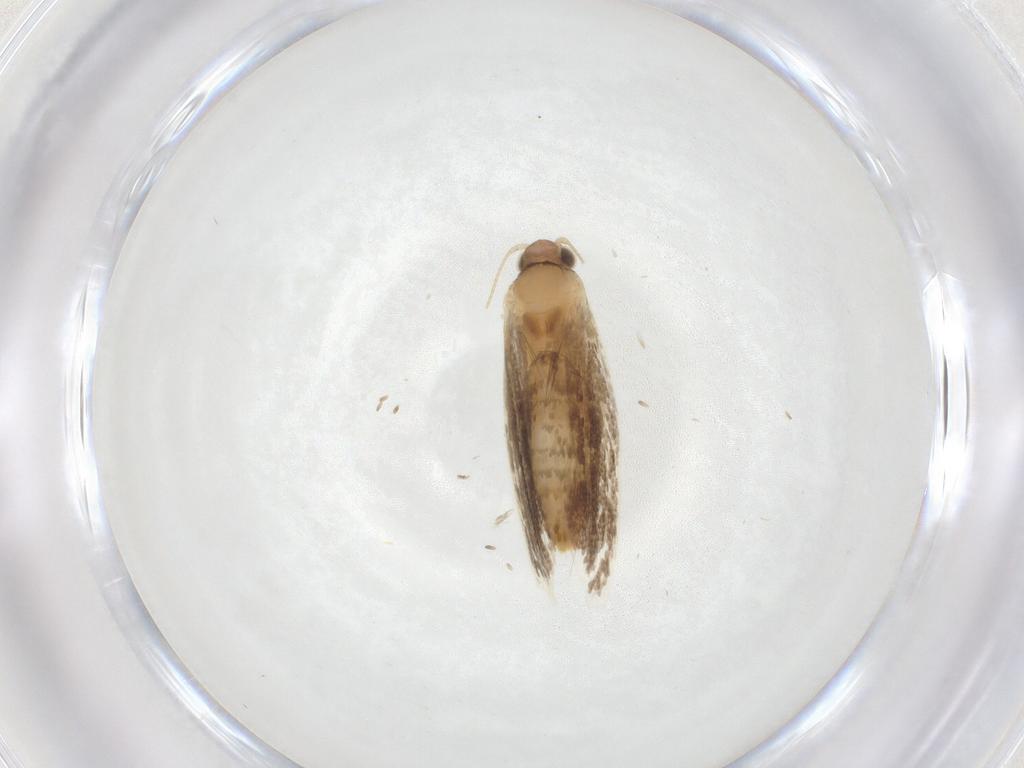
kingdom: Animalia
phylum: Arthropoda
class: Insecta
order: Lepidoptera
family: Tineidae
